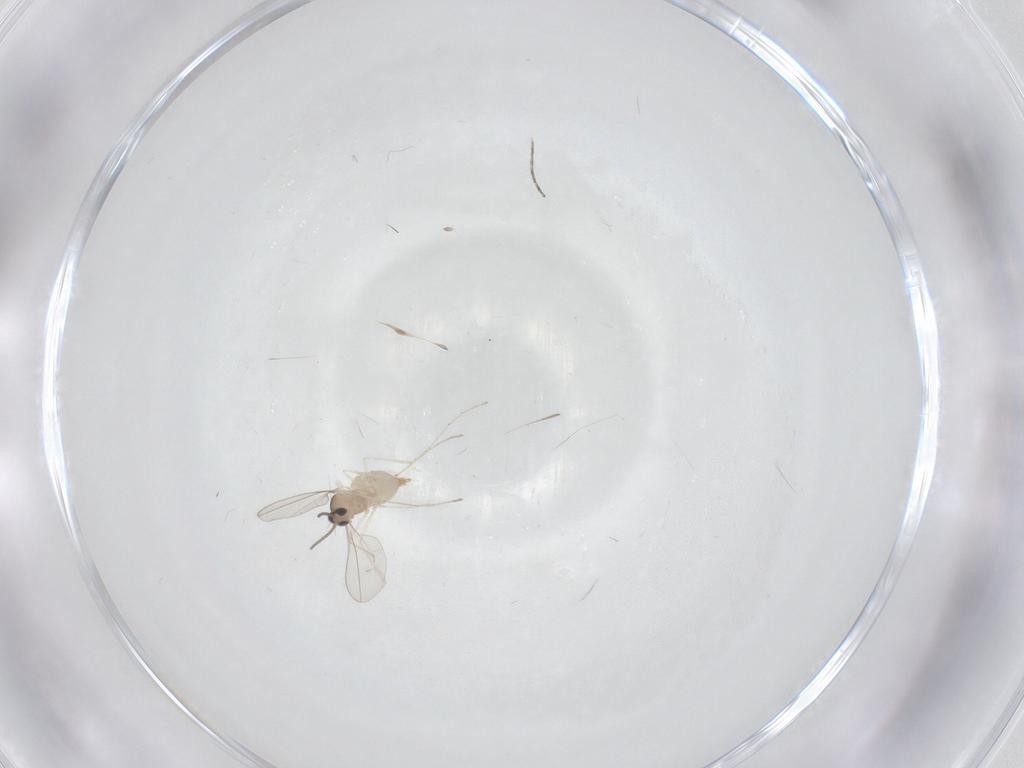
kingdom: Animalia
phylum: Arthropoda
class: Insecta
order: Diptera
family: Cecidomyiidae
